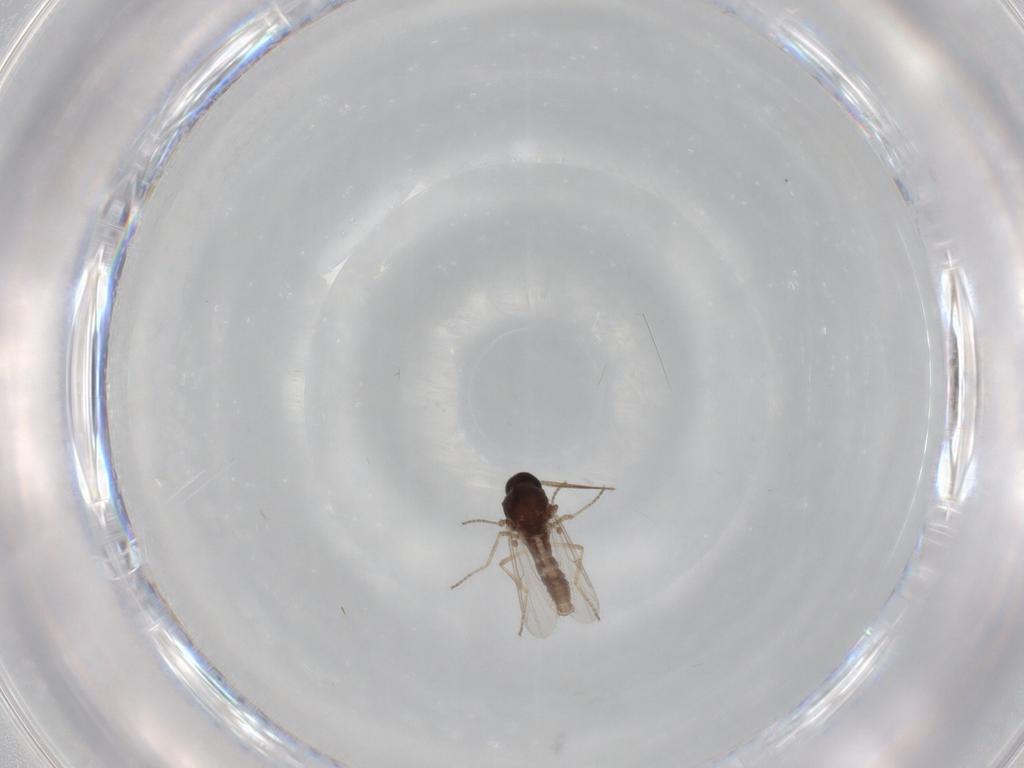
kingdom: Animalia
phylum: Arthropoda
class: Insecta
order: Diptera
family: Ceratopogonidae
